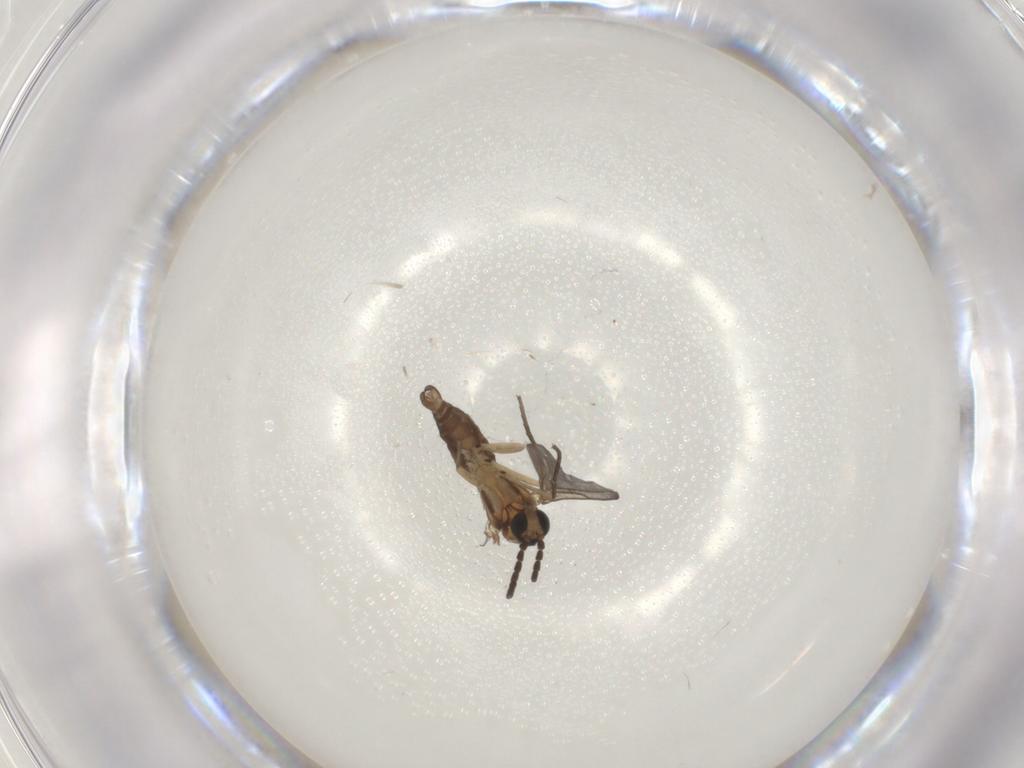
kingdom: Animalia
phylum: Arthropoda
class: Insecta
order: Diptera
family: Sciaridae
